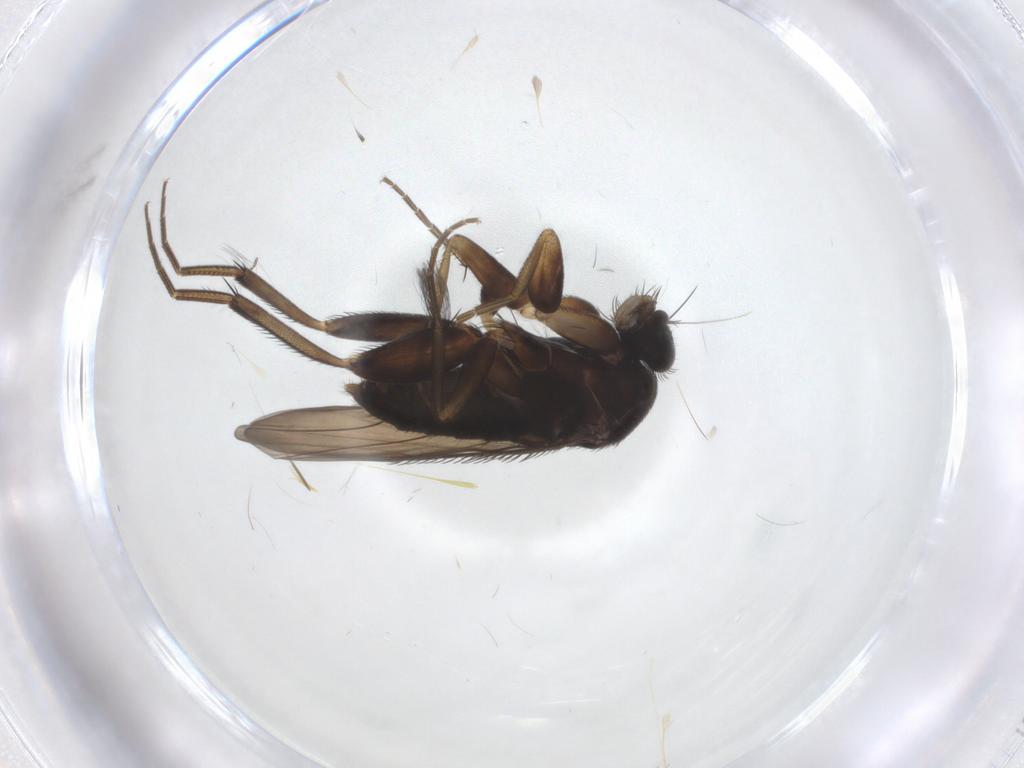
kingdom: Animalia
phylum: Arthropoda
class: Insecta
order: Diptera
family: Phoridae
